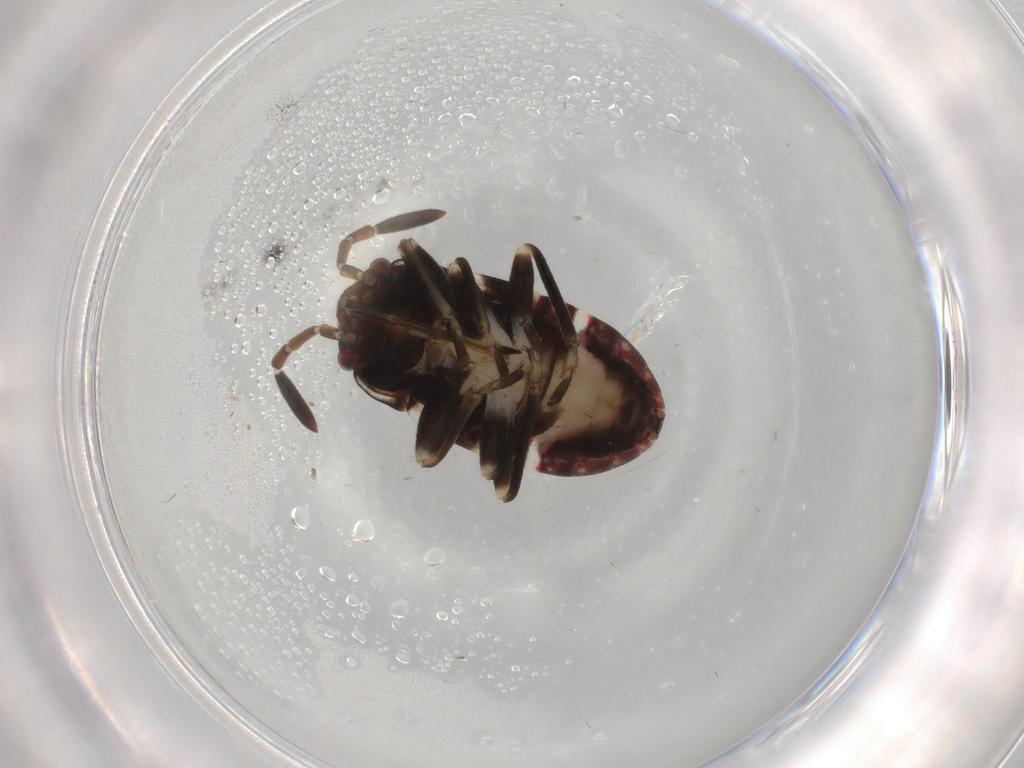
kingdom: Animalia
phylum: Arthropoda
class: Insecta
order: Hemiptera
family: Rhyparochromidae
